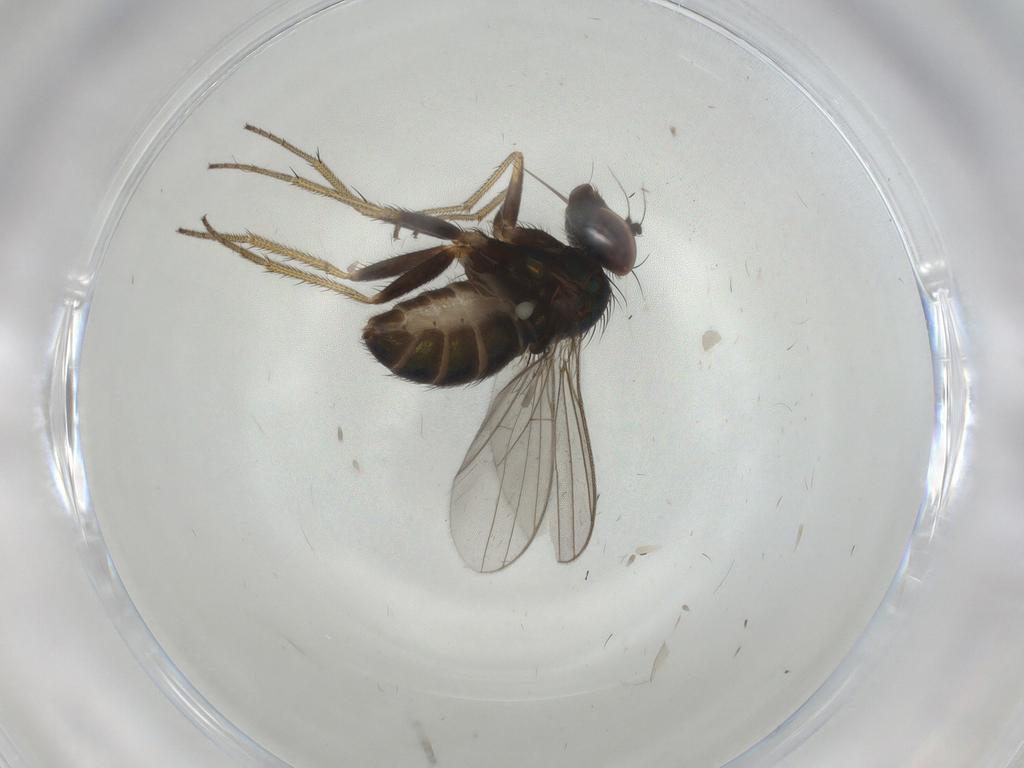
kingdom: Animalia
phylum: Arthropoda
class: Insecta
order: Diptera
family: Dolichopodidae
